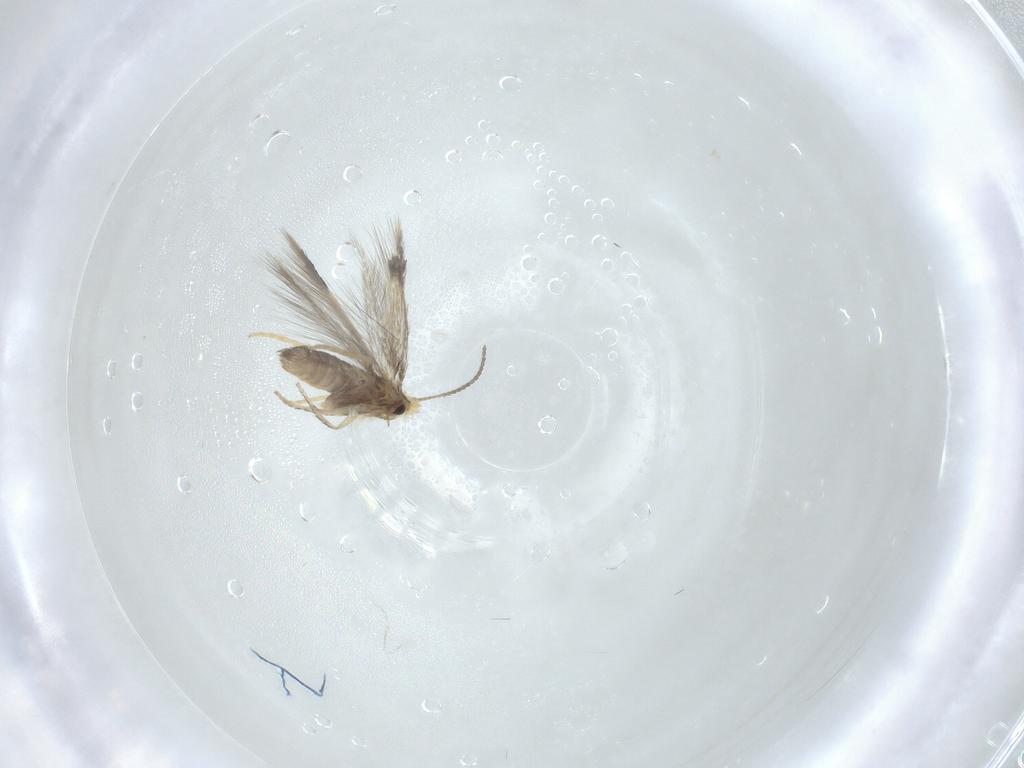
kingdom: Animalia
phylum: Arthropoda
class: Insecta
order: Lepidoptera
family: Nepticulidae
